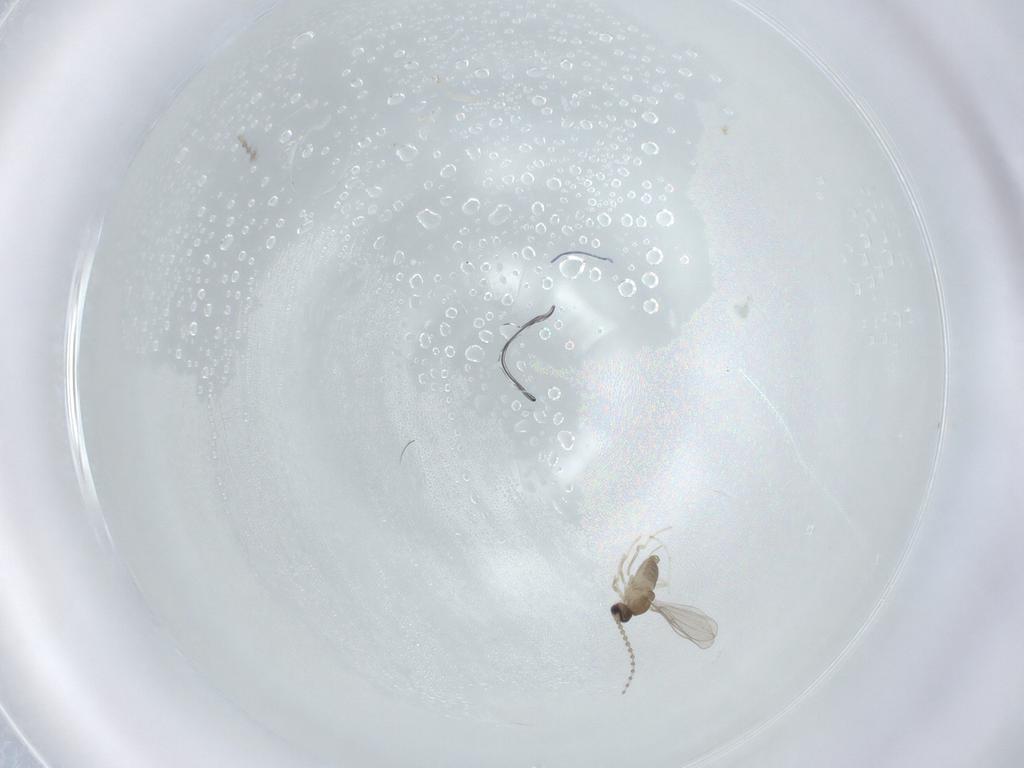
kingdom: Animalia
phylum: Arthropoda
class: Insecta
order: Diptera
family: Cecidomyiidae
